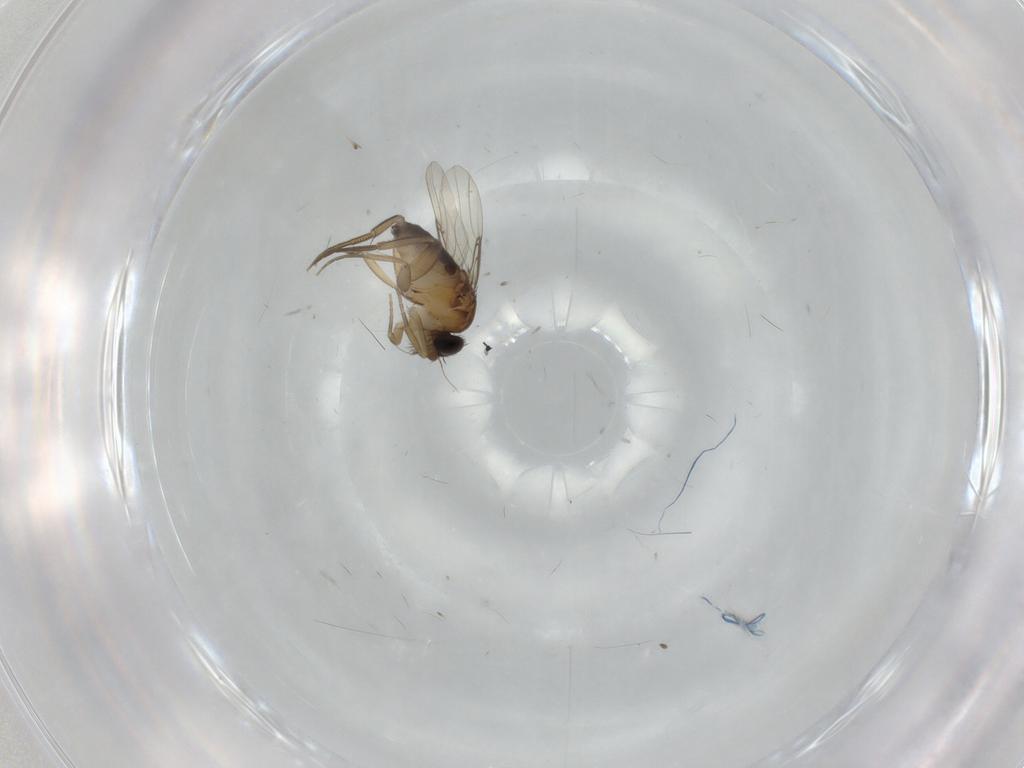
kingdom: Animalia
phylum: Arthropoda
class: Insecta
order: Diptera
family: Phoridae
